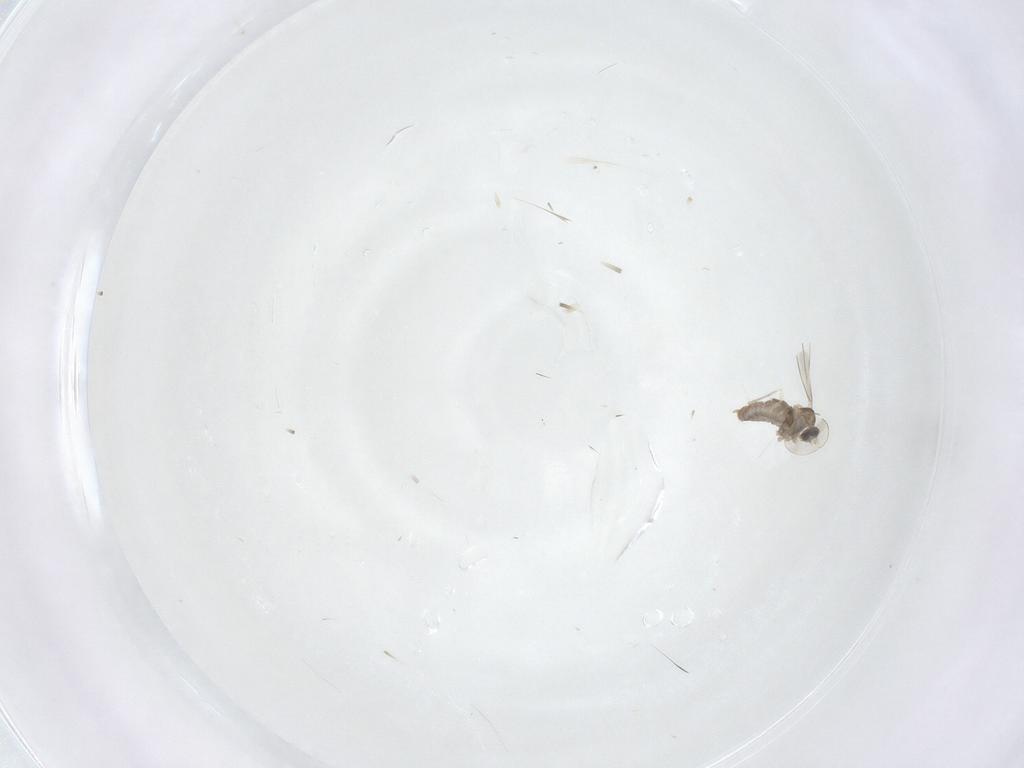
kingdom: Animalia
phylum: Arthropoda
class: Insecta
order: Diptera
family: Cecidomyiidae
